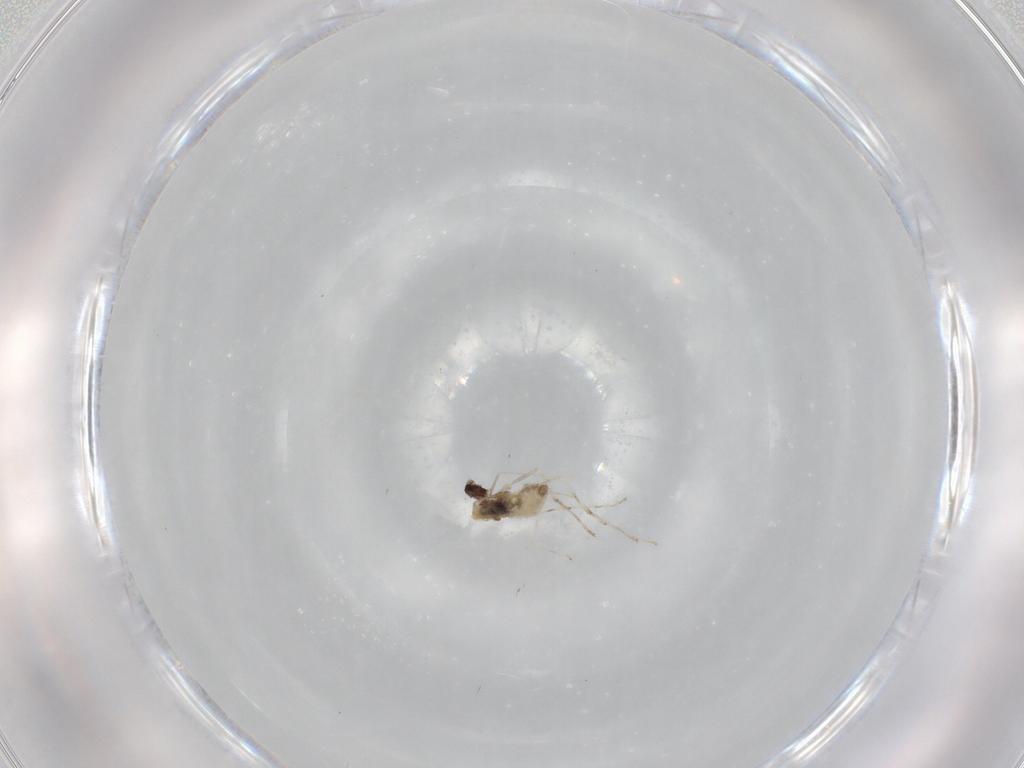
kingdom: Animalia
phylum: Arthropoda
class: Insecta
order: Diptera
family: Cecidomyiidae
